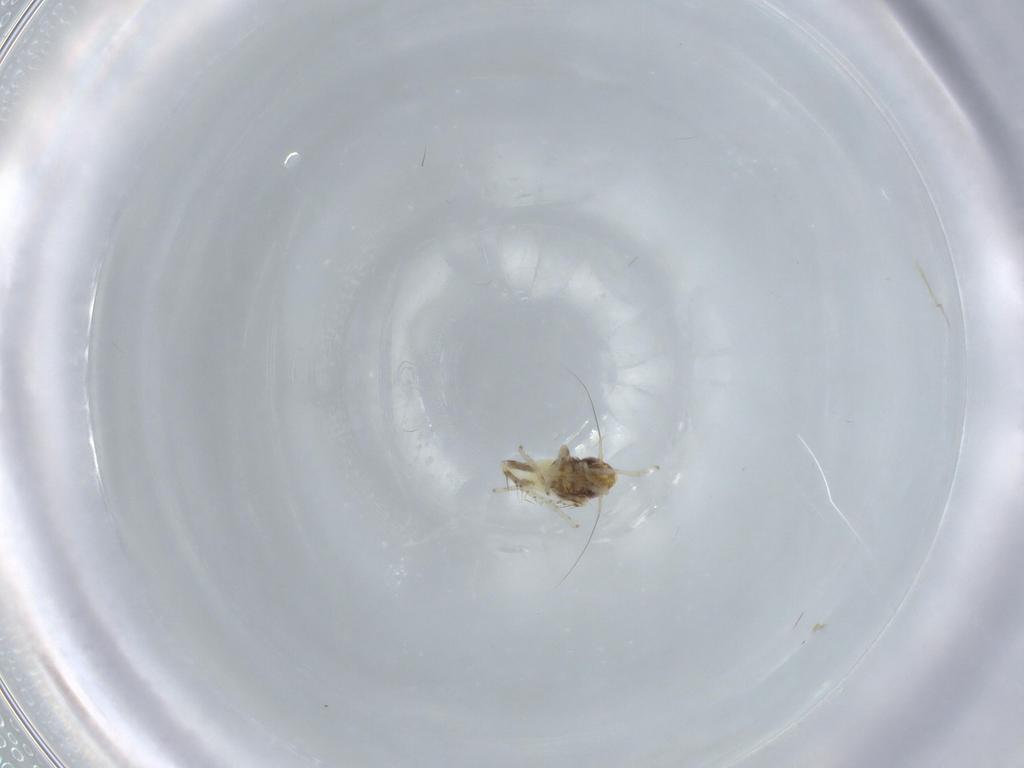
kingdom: Animalia
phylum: Arthropoda
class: Insecta
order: Hemiptera
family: Cicadellidae
